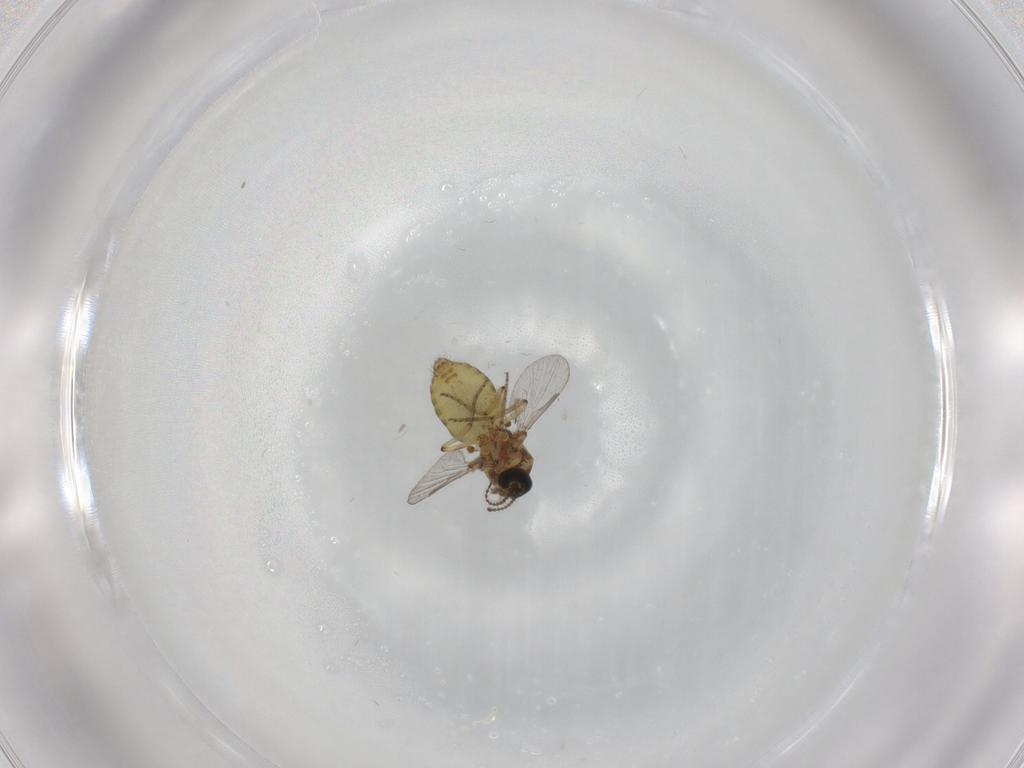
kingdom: Animalia
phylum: Arthropoda
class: Insecta
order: Diptera
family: Ceratopogonidae
